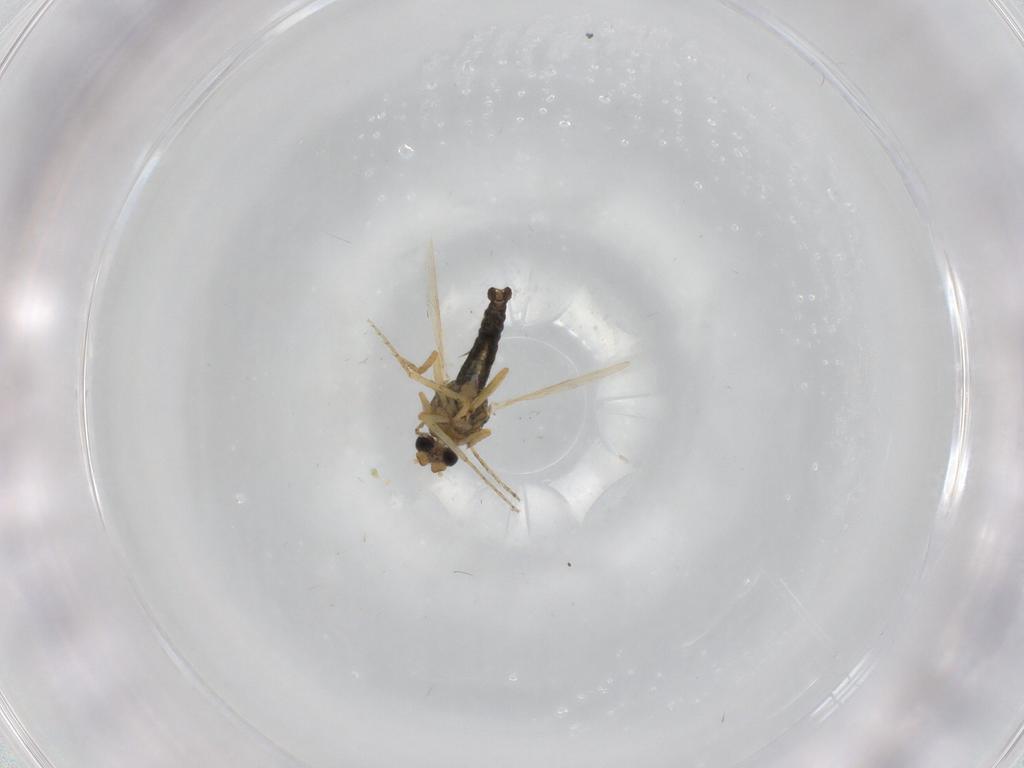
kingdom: Animalia
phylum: Arthropoda
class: Insecta
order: Diptera
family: Ceratopogonidae
